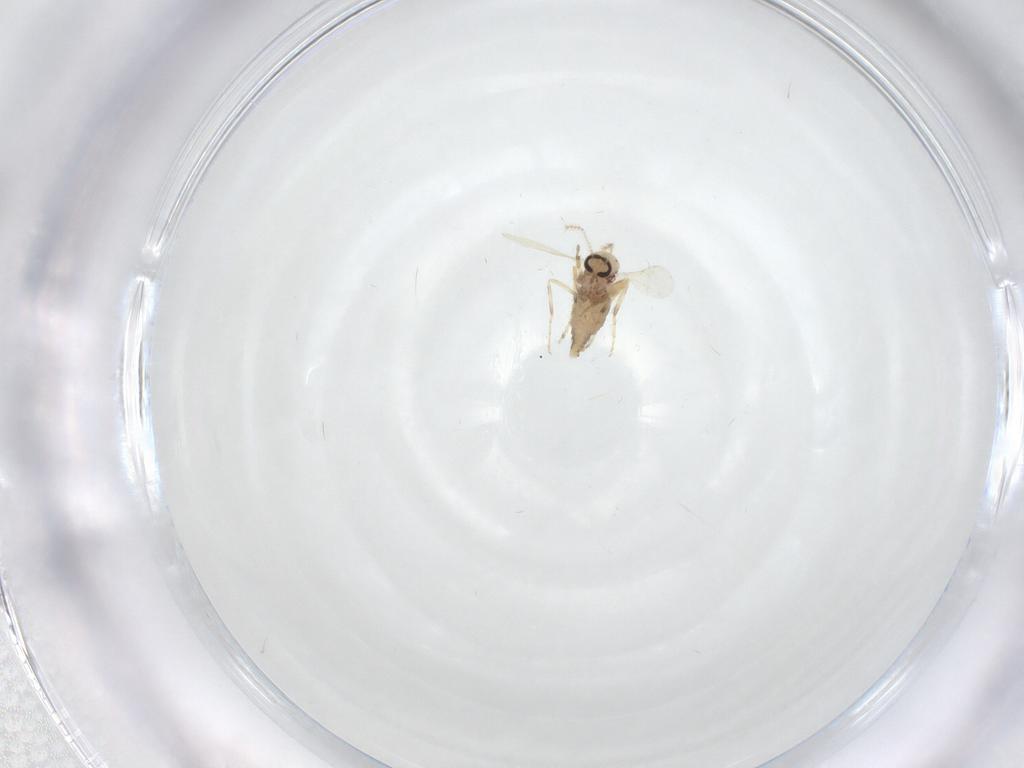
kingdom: Animalia
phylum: Arthropoda
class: Insecta
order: Diptera
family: Ceratopogonidae
